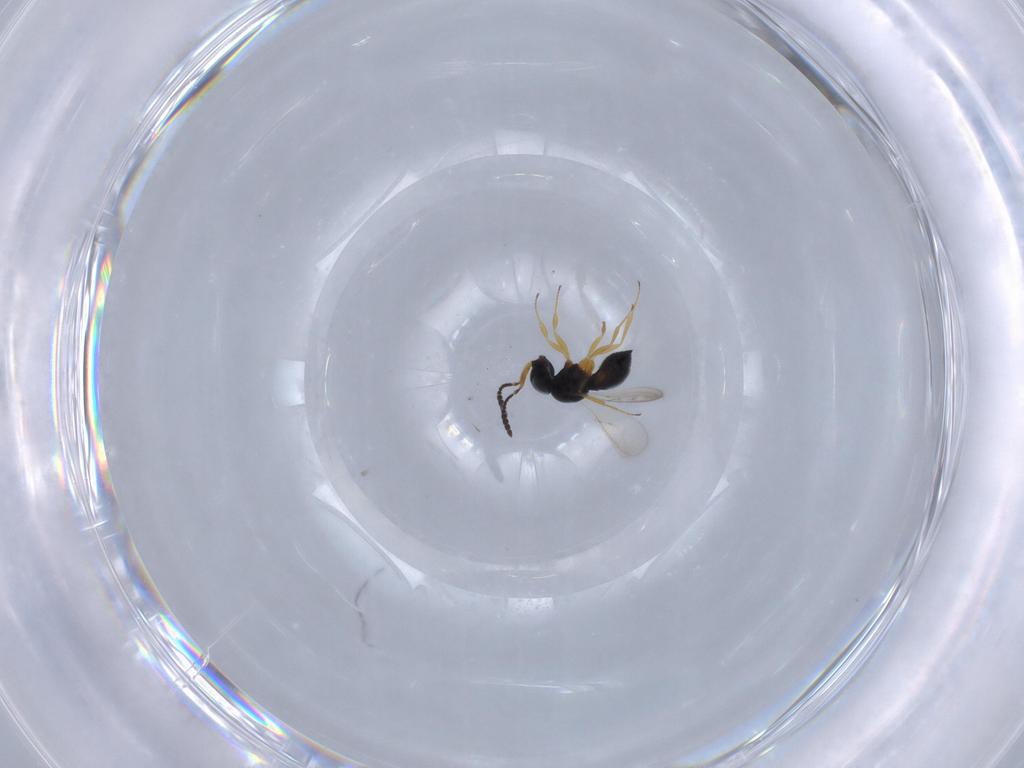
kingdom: Animalia
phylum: Arthropoda
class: Insecta
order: Hymenoptera
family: Scelionidae
